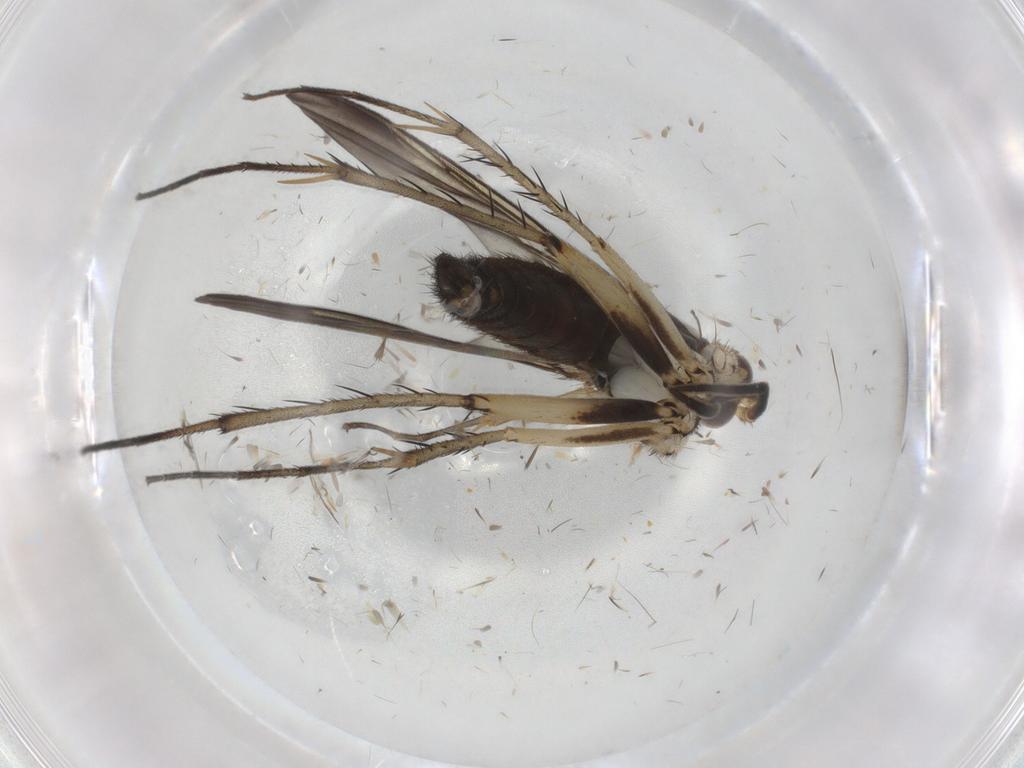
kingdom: Animalia
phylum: Arthropoda
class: Insecta
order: Diptera
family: Mycetophilidae
